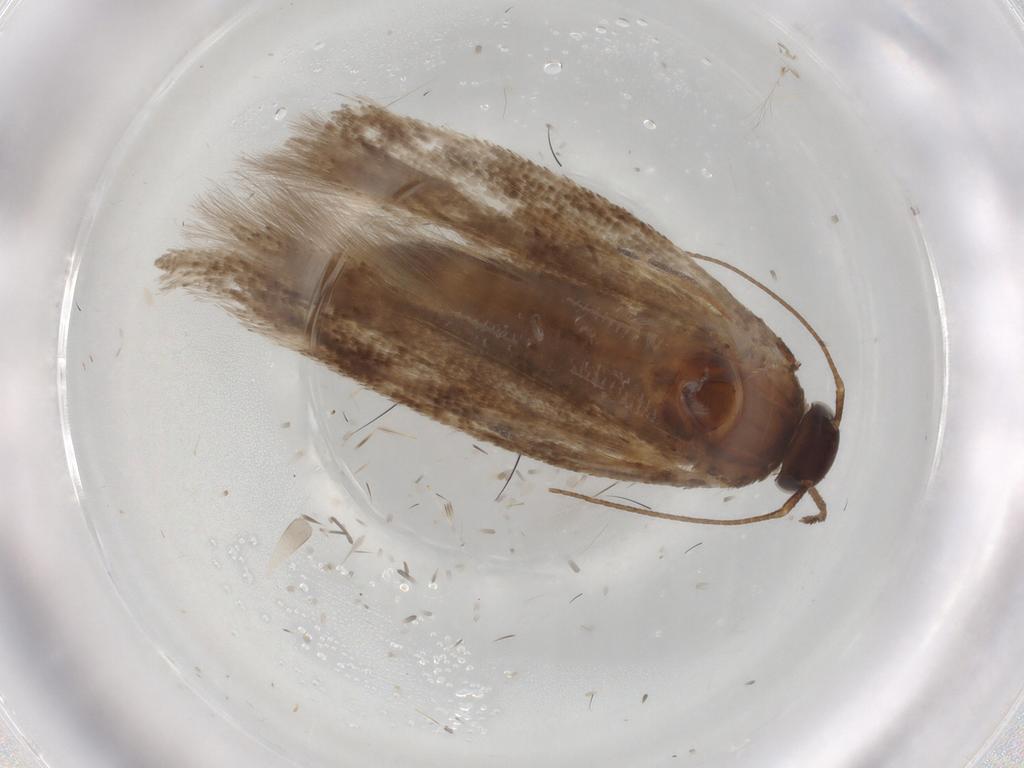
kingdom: Animalia
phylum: Arthropoda
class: Insecta
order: Lepidoptera
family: Gelechiidae
